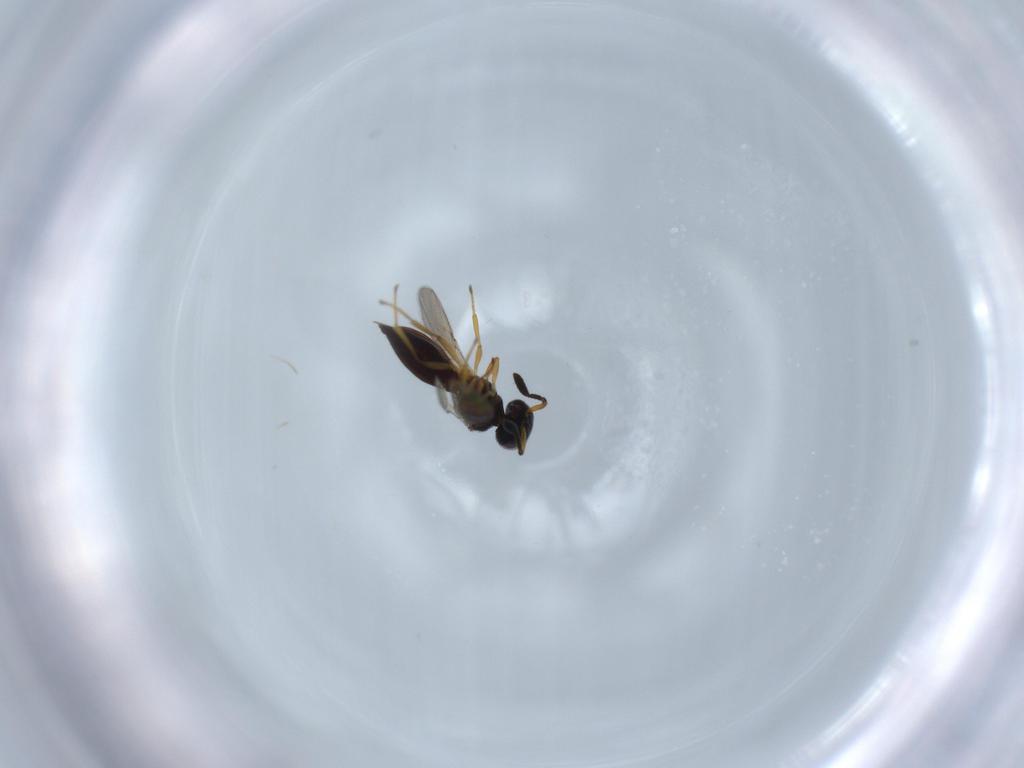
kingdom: Animalia
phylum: Arthropoda
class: Insecta
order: Hymenoptera
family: Scelionidae
